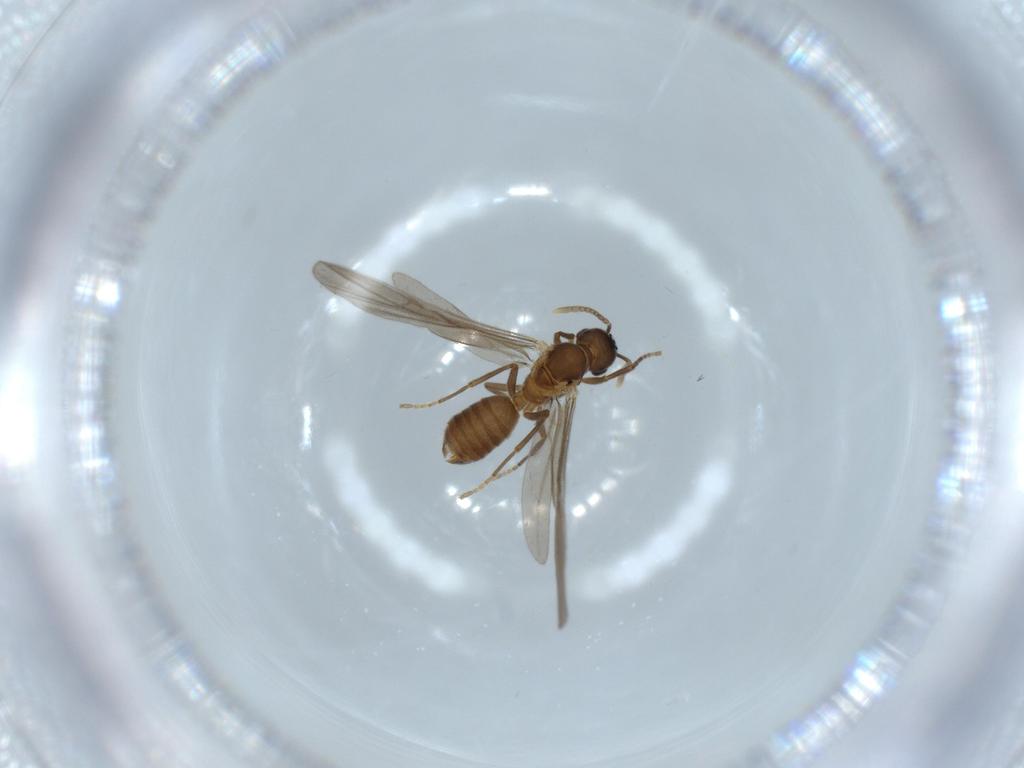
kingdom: Animalia
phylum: Arthropoda
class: Insecta
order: Hymenoptera
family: Formicidae
